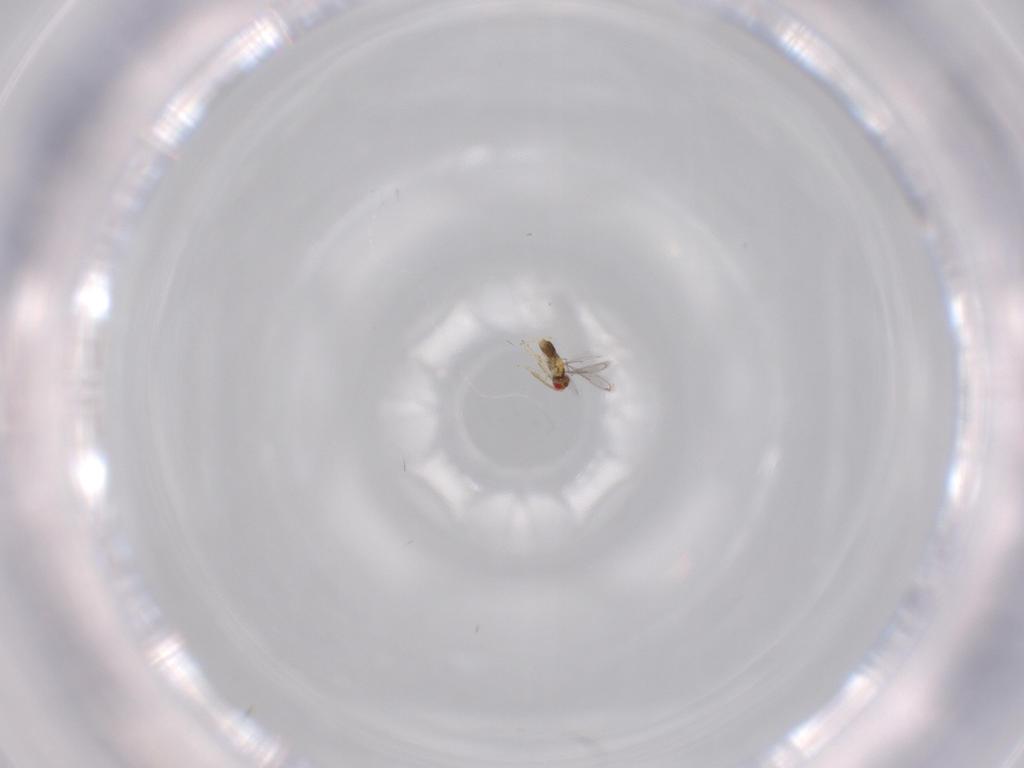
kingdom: Animalia
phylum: Arthropoda
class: Insecta
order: Hymenoptera
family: Aphelinidae
